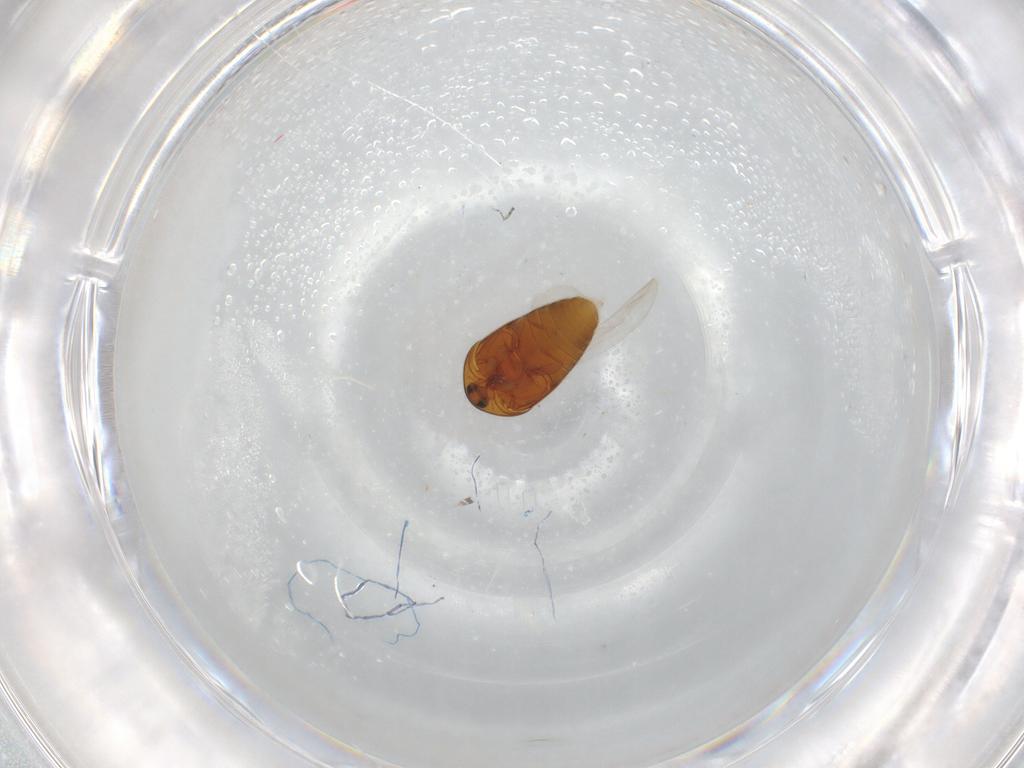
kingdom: Animalia
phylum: Arthropoda
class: Insecta
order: Coleoptera
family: Corylophidae
